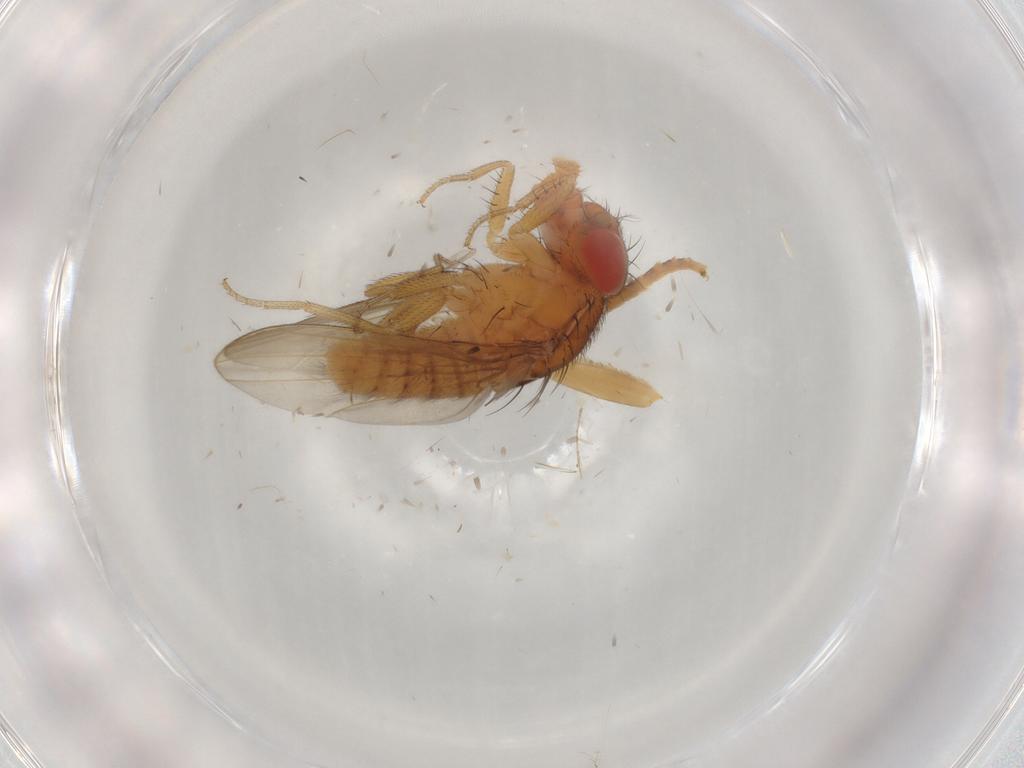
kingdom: Animalia
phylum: Arthropoda
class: Insecta
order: Diptera
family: Drosophilidae
